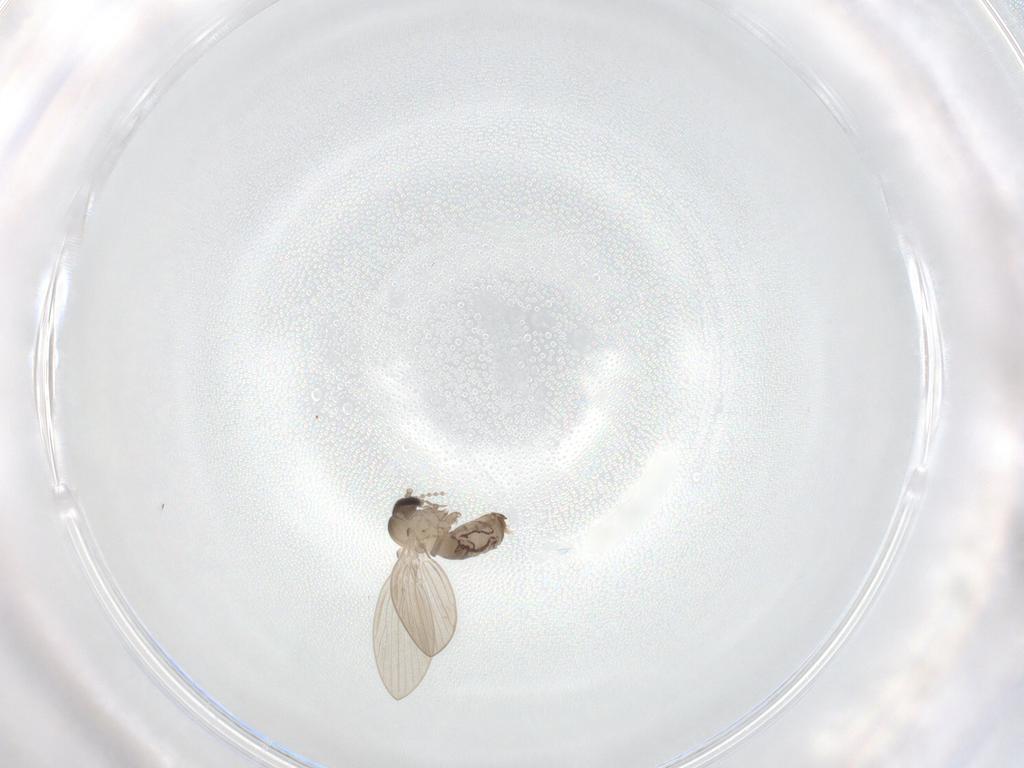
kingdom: Animalia
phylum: Arthropoda
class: Insecta
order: Diptera
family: Psychodidae
